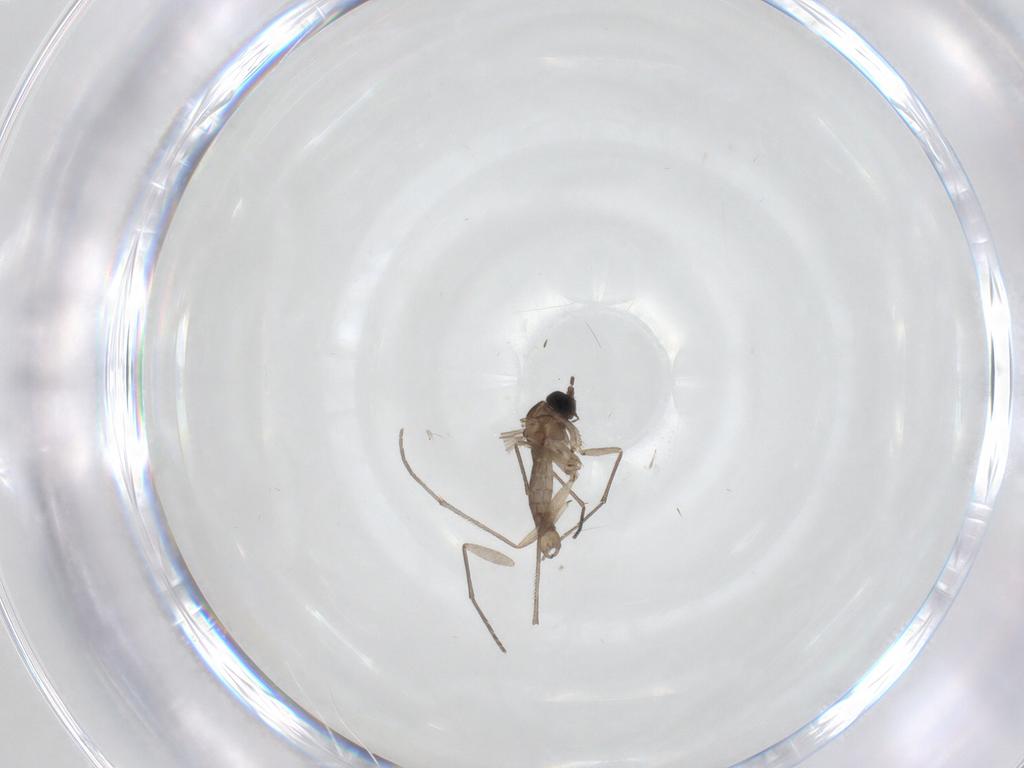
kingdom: Animalia
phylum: Arthropoda
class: Insecta
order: Diptera
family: Sciaridae
